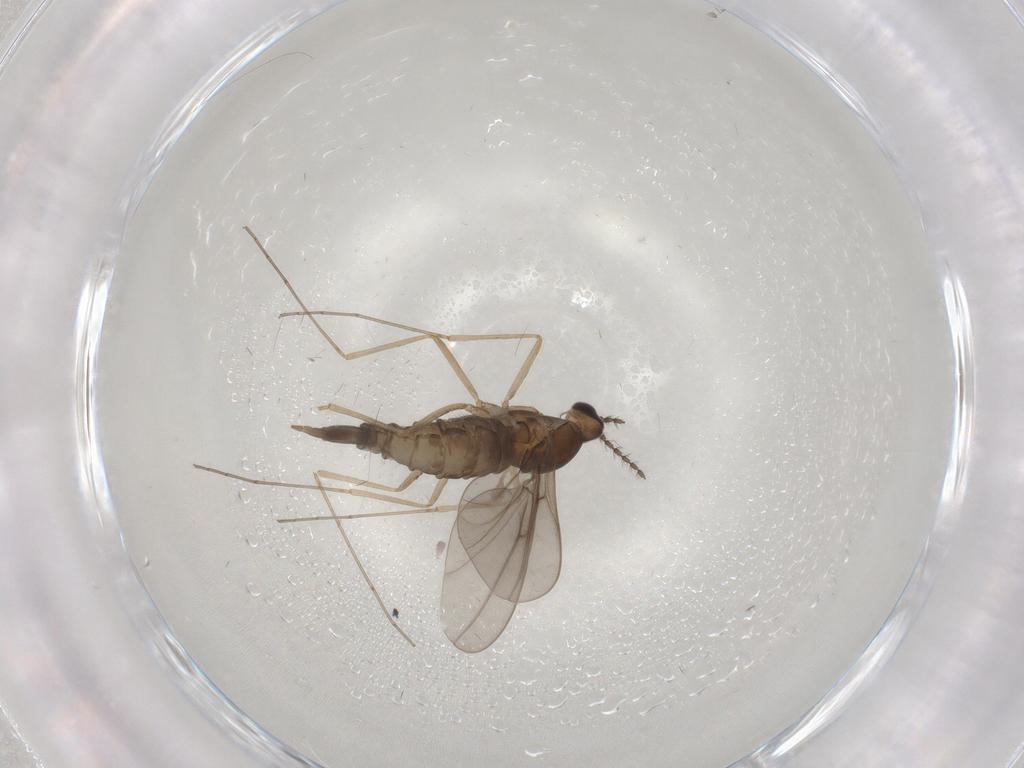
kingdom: Animalia
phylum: Arthropoda
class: Insecta
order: Diptera
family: Cecidomyiidae
